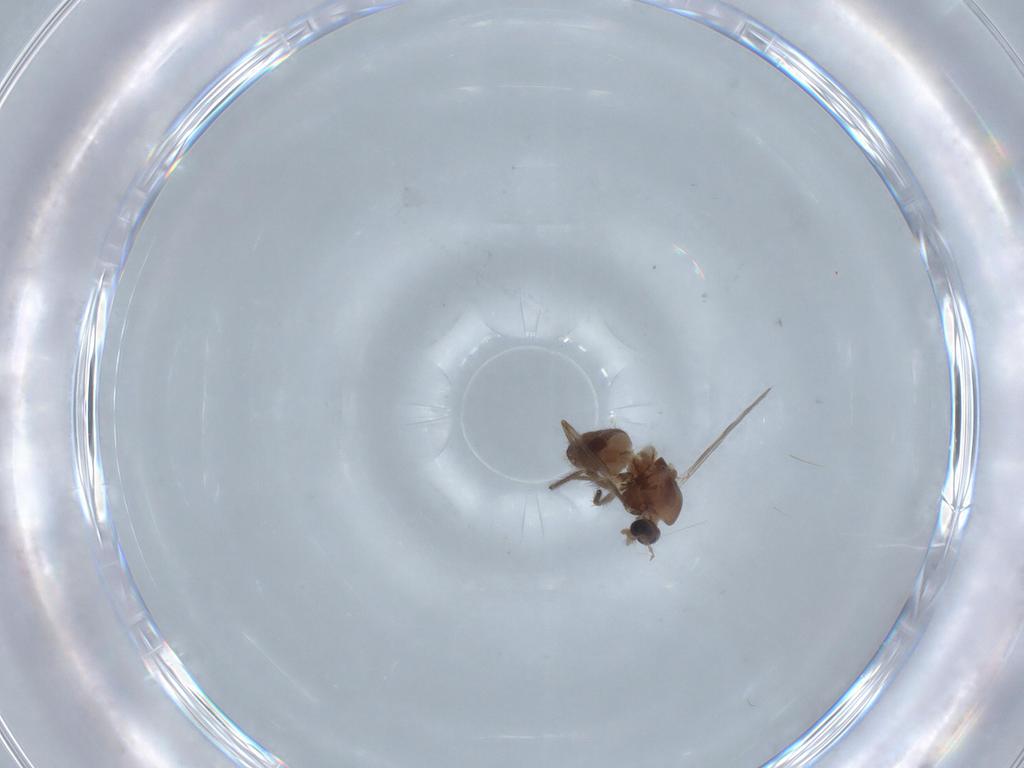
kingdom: Animalia
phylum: Arthropoda
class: Insecta
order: Diptera
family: Chironomidae
